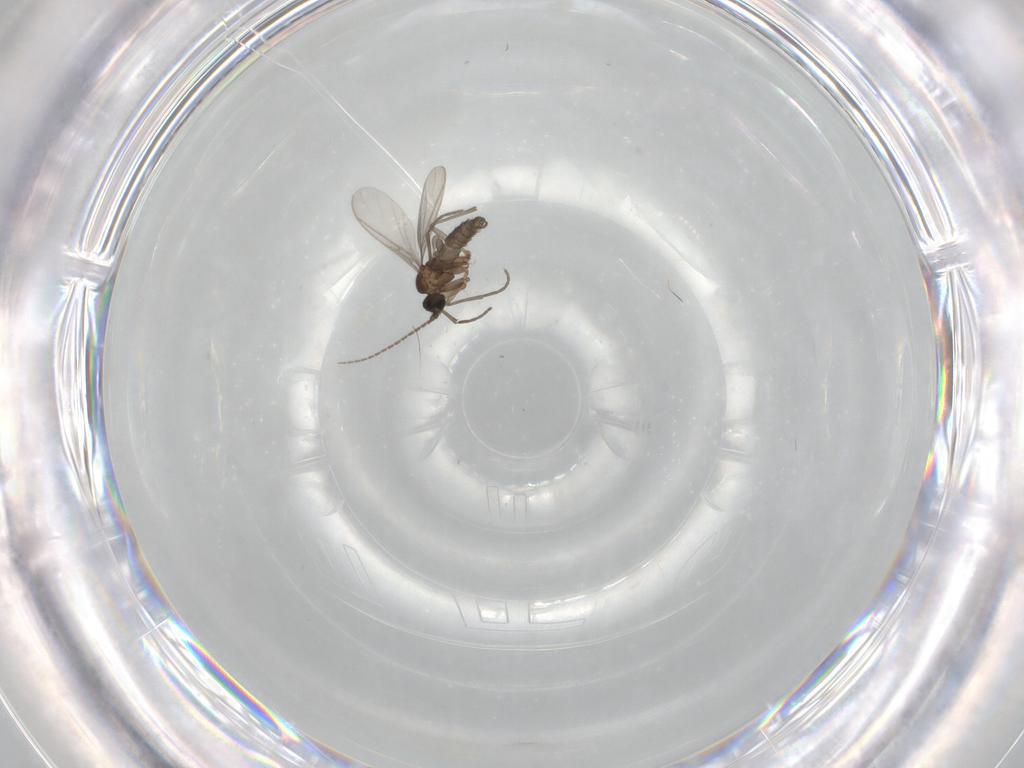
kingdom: Animalia
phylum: Arthropoda
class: Insecta
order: Diptera
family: Sciaridae
